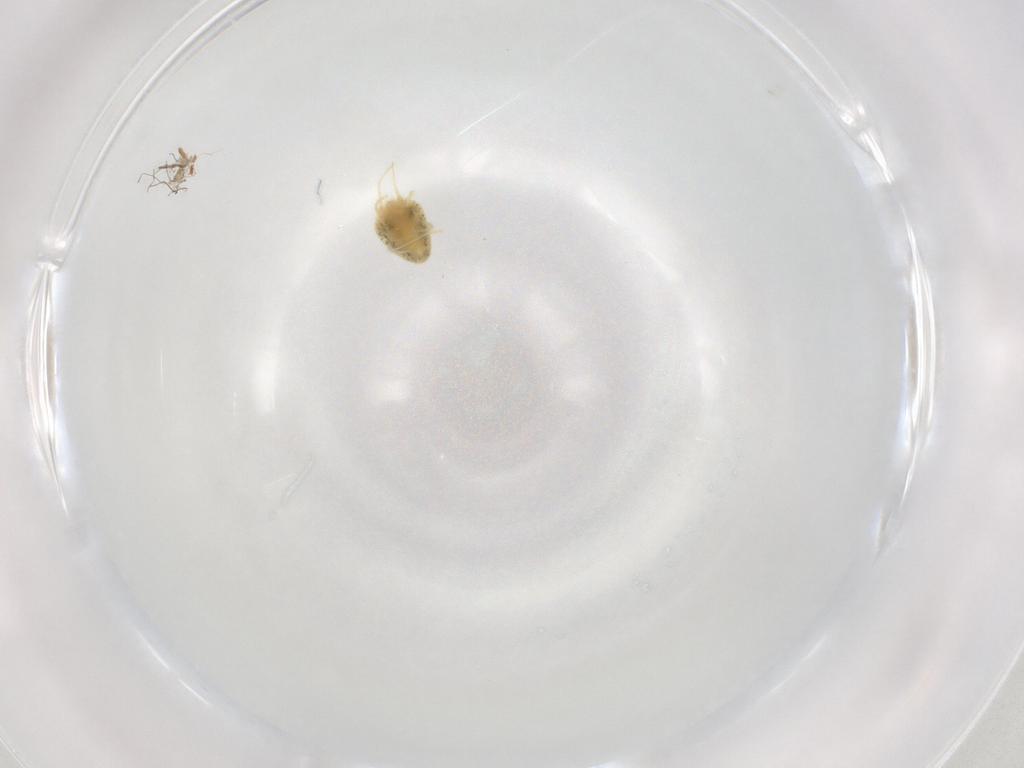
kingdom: Animalia
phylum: Arthropoda
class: Arachnida
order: Trombidiformes
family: Tetranychidae
